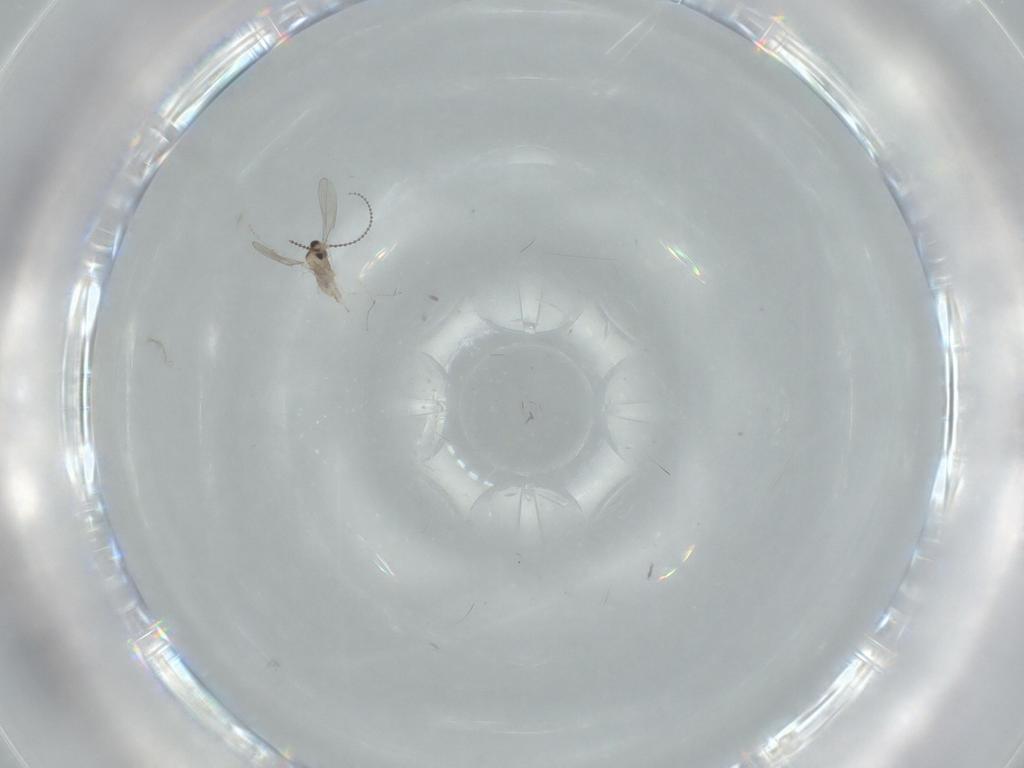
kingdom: Animalia
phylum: Arthropoda
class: Insecta
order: Diptera
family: Cecidomyiidae
